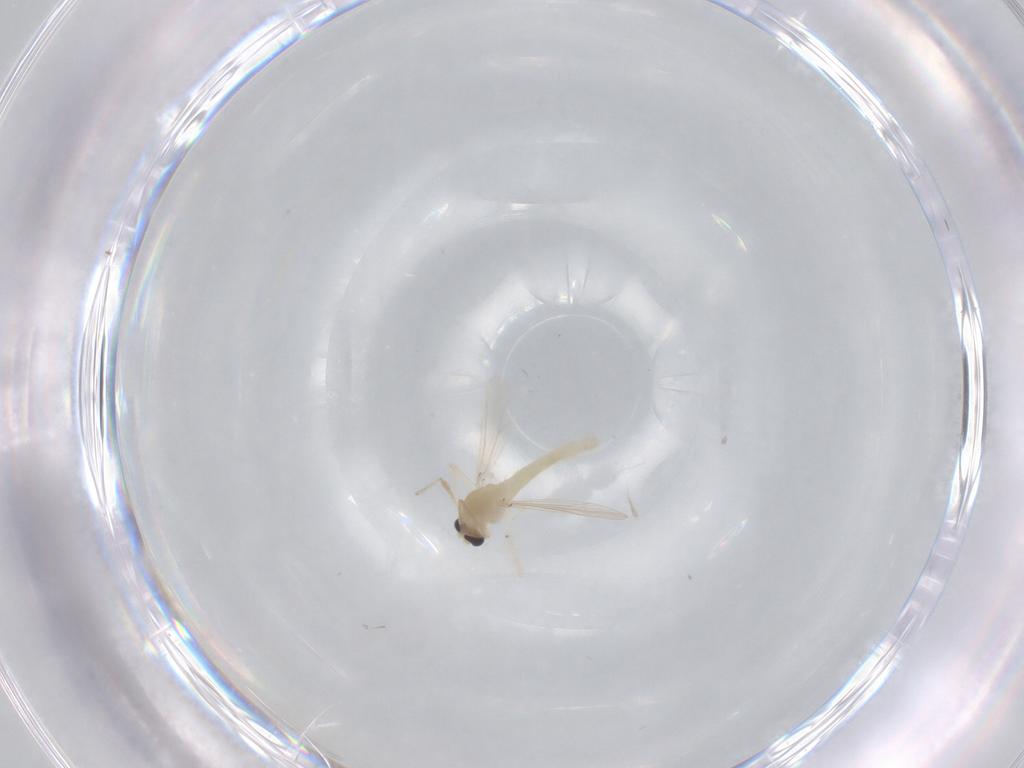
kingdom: Animalia
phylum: Arthropoda
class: Insecta
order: Diptera
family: Chironomidae
